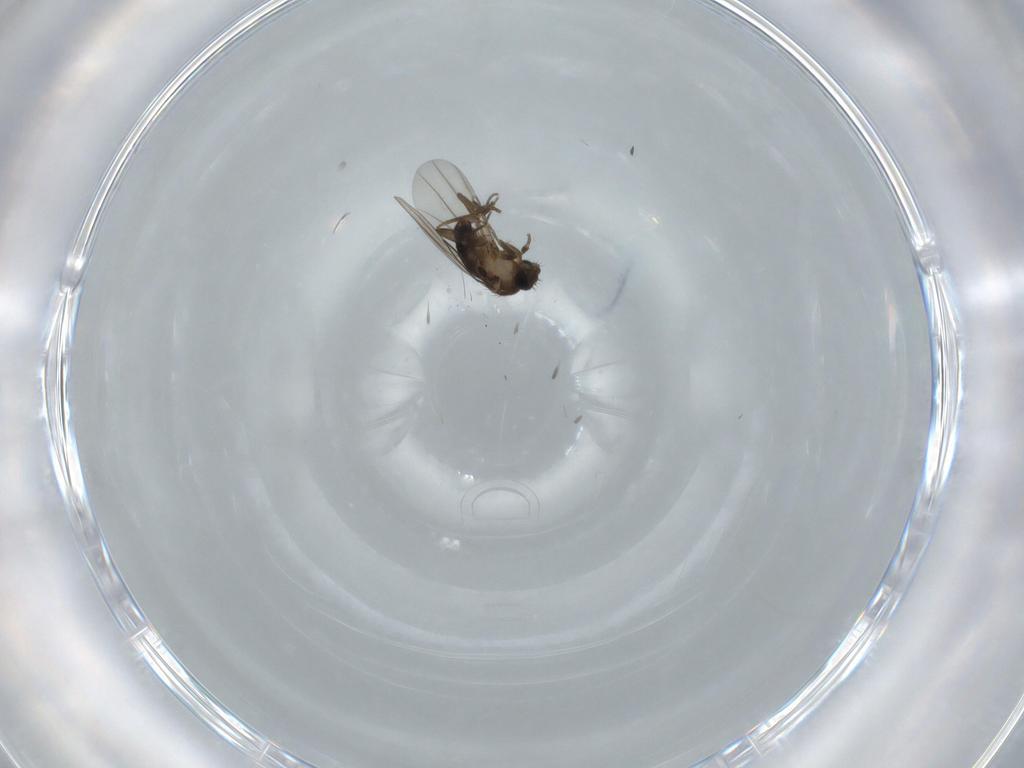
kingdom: Animalia
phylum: Arthropoda
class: Insecta
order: Diptera
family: Phoridae
